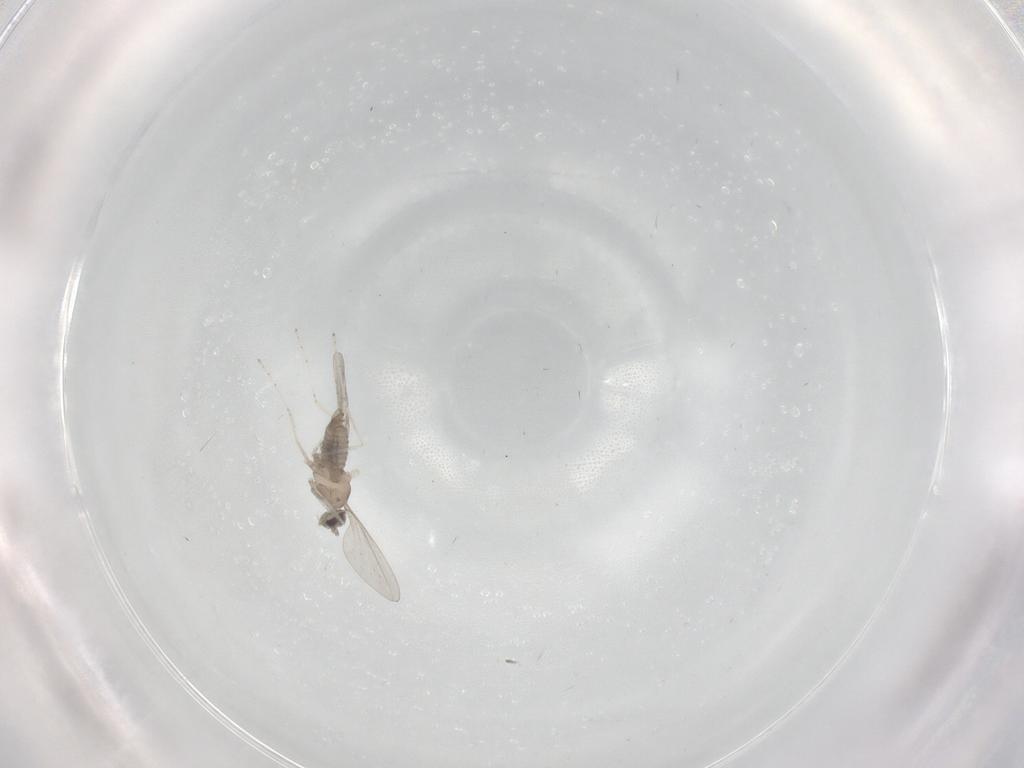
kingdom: Animalia
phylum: Arthropoda
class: Insecta
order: Diptera
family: Cecidomyiidae
